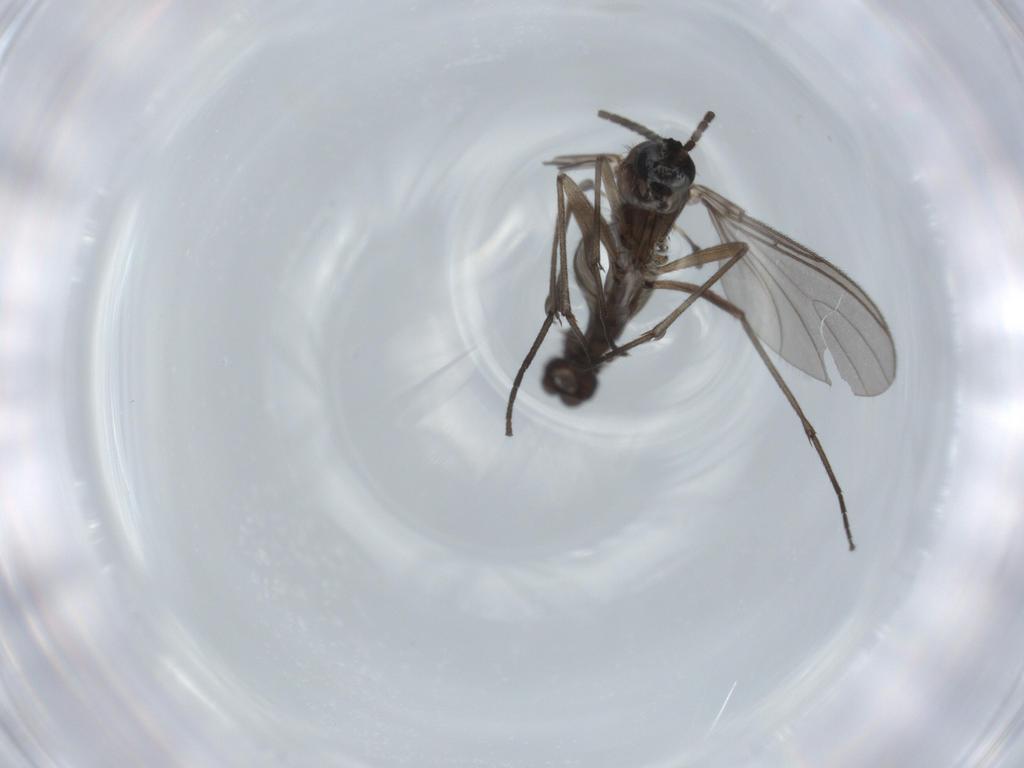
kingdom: Animalia
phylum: Arthropoda
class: Insecta
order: Diptera
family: Sciaridae
